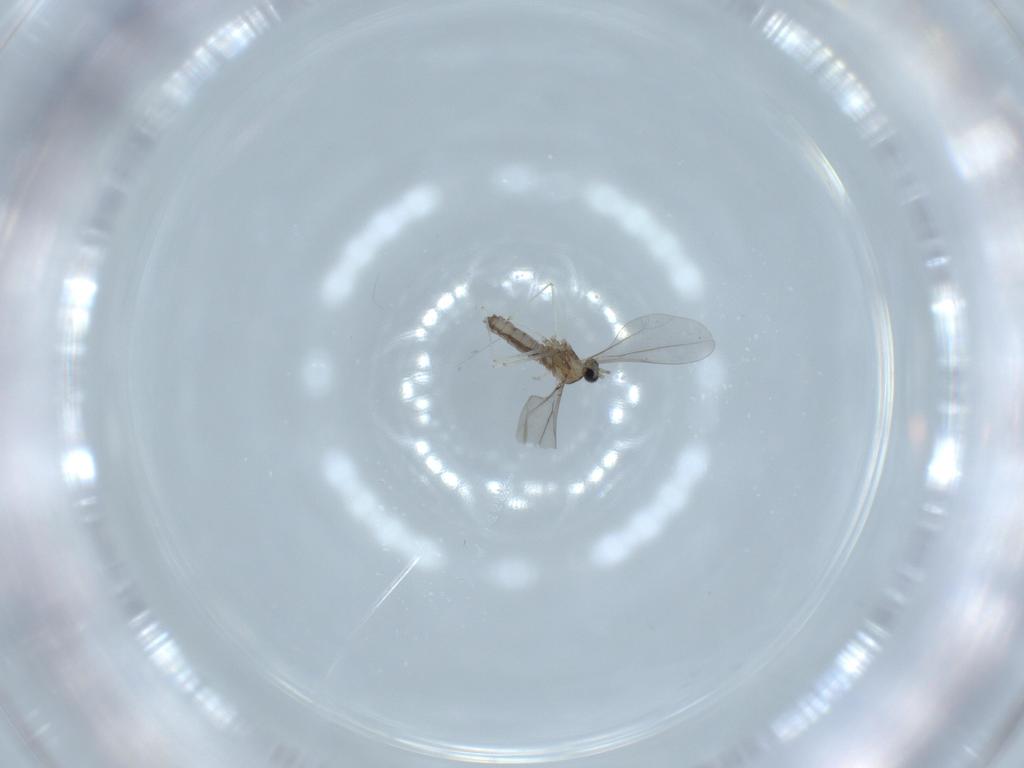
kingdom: Animalia
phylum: Arthropoda
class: Insecta
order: Diptera
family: Cecidomyiidae
